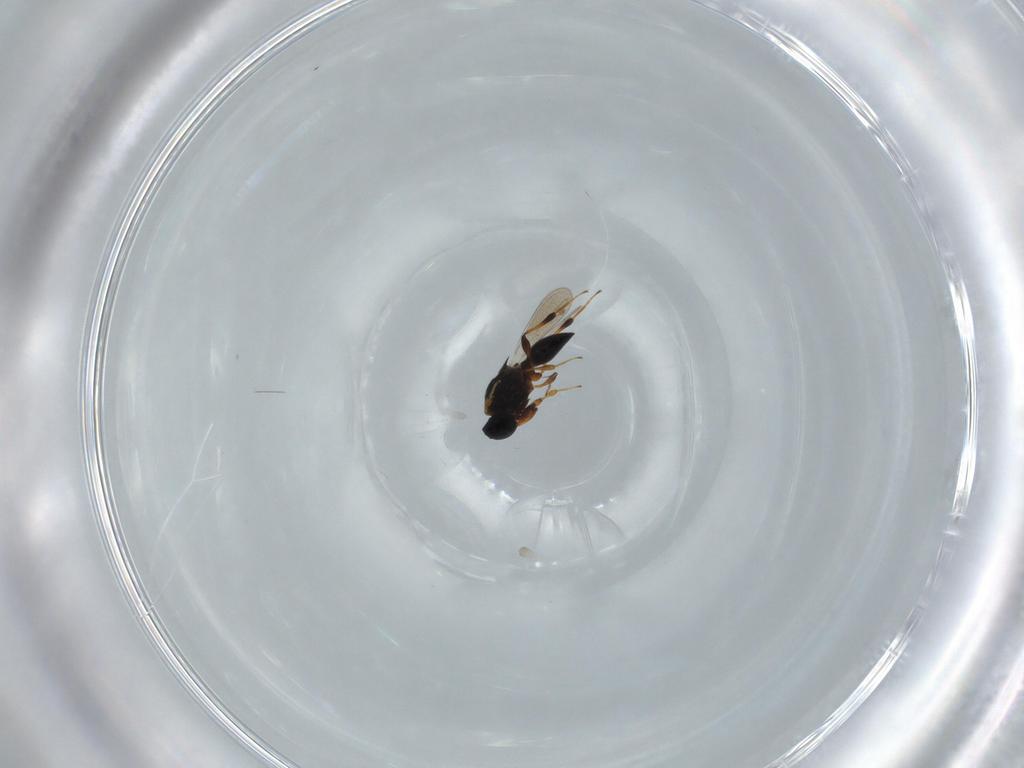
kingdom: Animalia
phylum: Arthropoda
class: Insecta
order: Hymenoptera
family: Platygastridae
